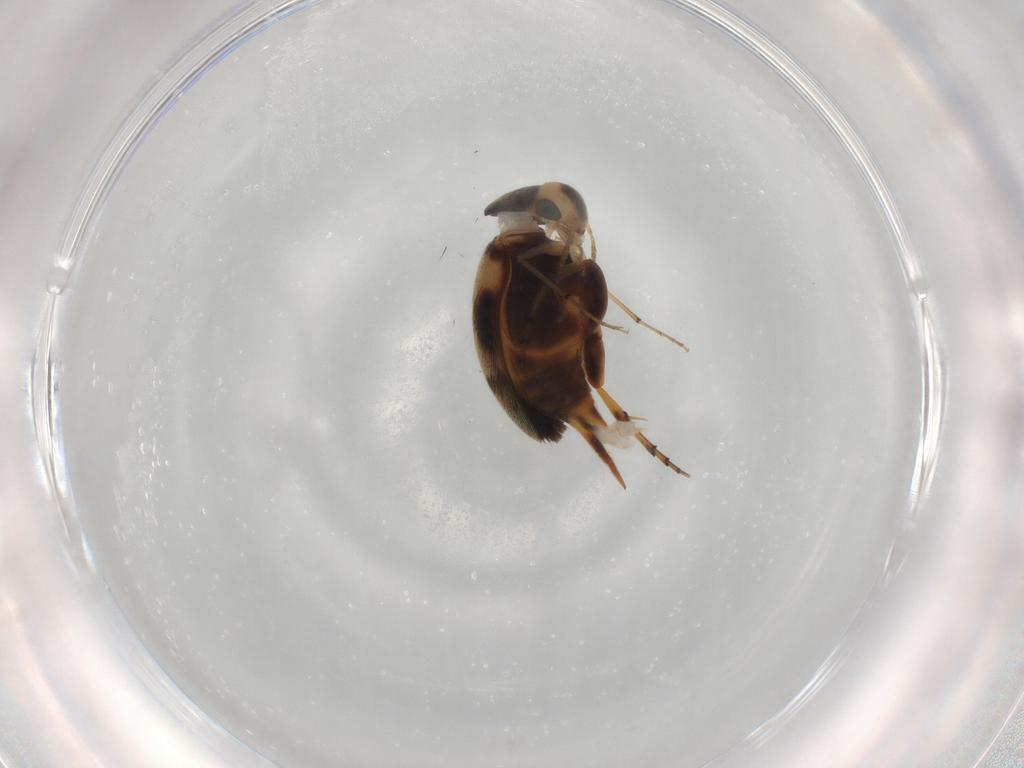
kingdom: Animalia
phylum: Arthropoda
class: Insecta
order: Coleoptera
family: Mordellidae
